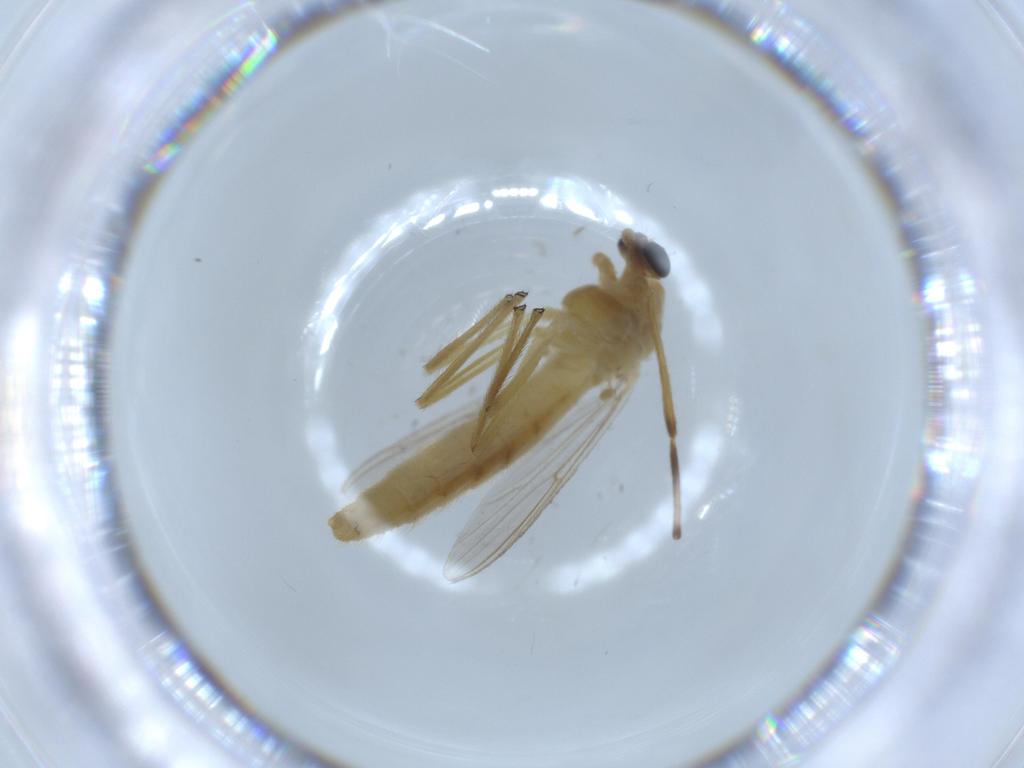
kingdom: Animalia
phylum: Arthropoda
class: Insecta
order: Diptera
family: Chironomidae
